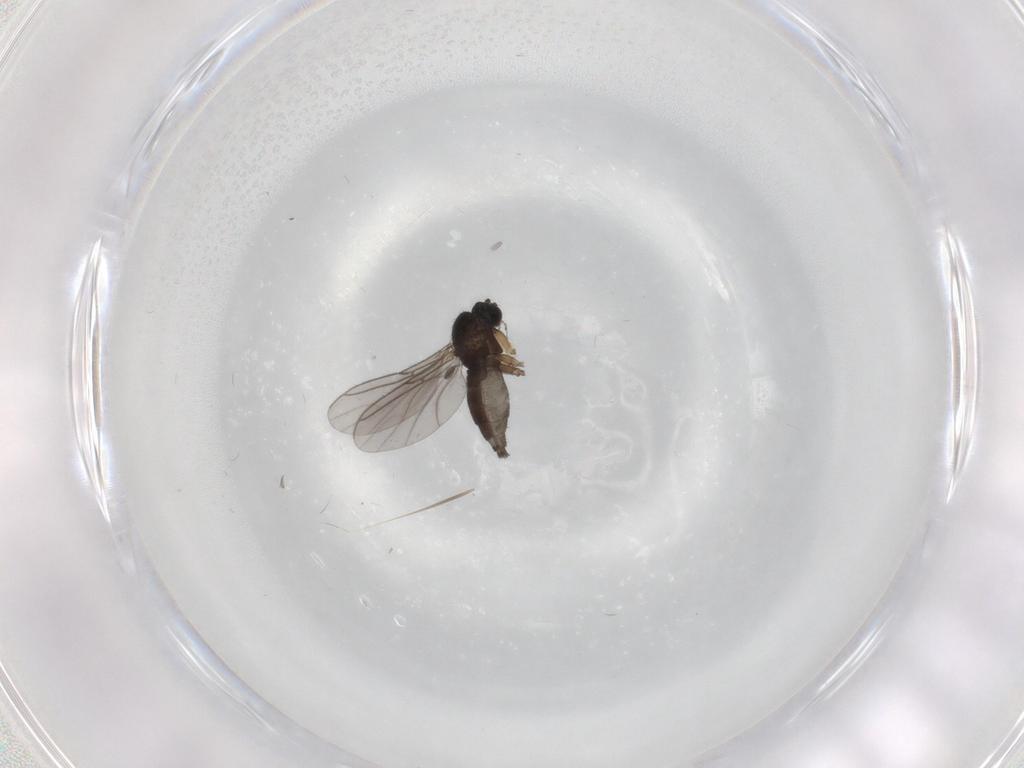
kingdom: Animalia
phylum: Arthropoda
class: Insecta
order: Diptera
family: Sciaridae
